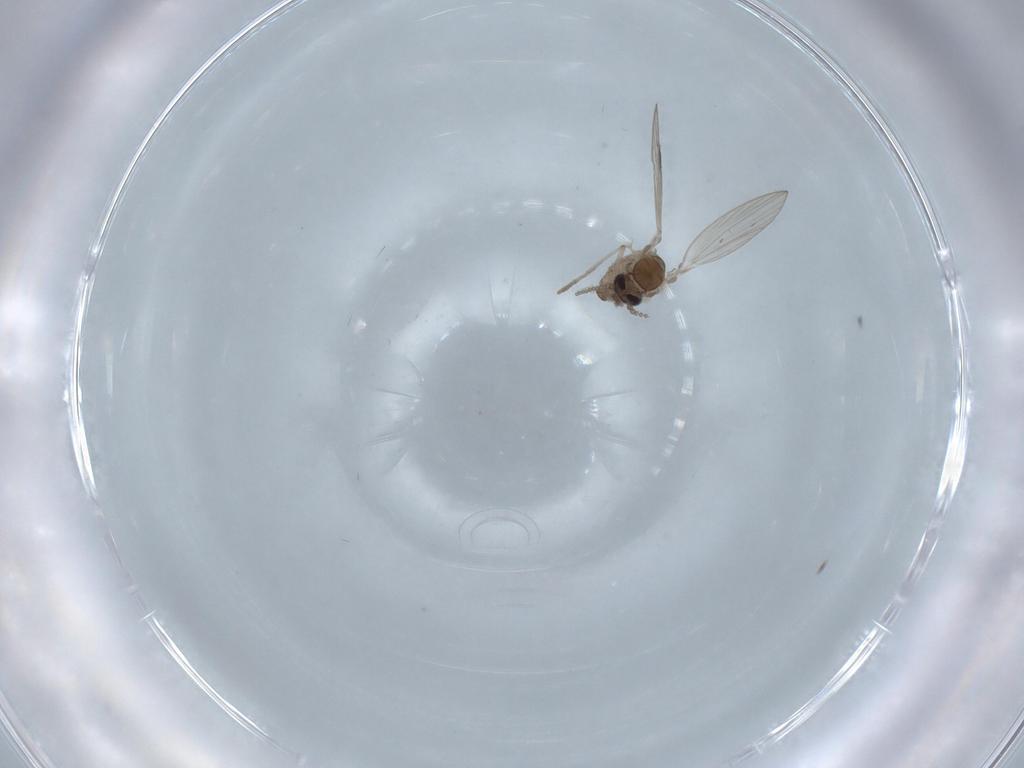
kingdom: Animalia
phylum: Arthropoda
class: Insecta
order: Diptera
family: Psychodidae
